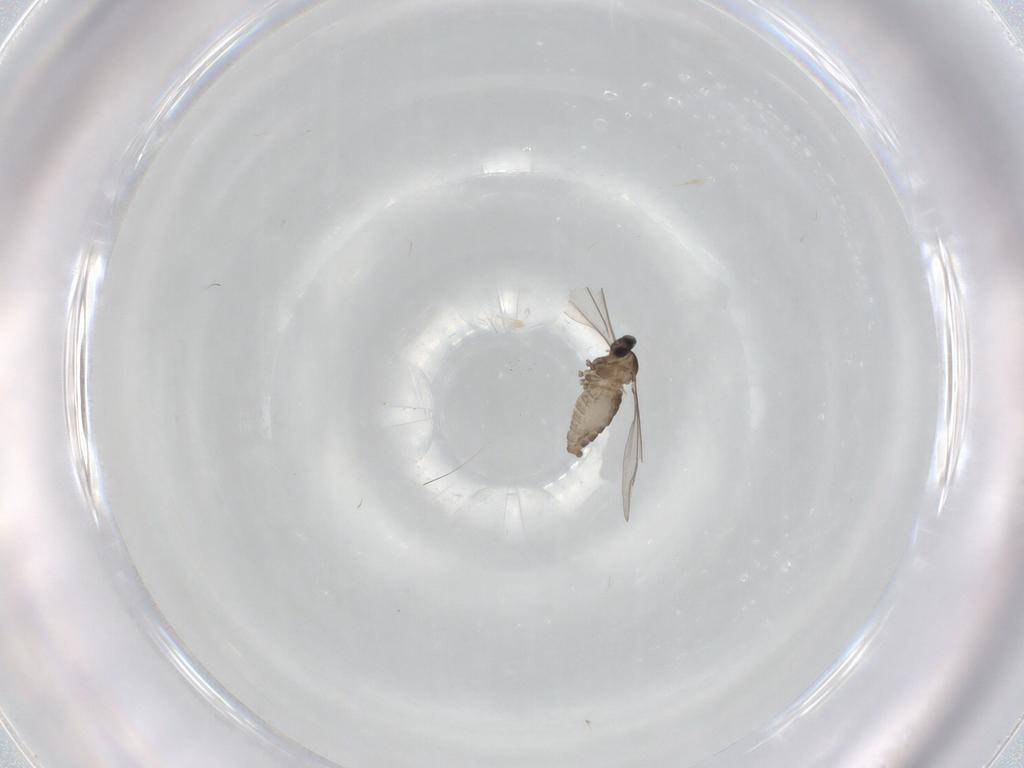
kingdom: Animalia
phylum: Arthropoda
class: Insecta
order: Diptera
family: Cecidomyiidae
